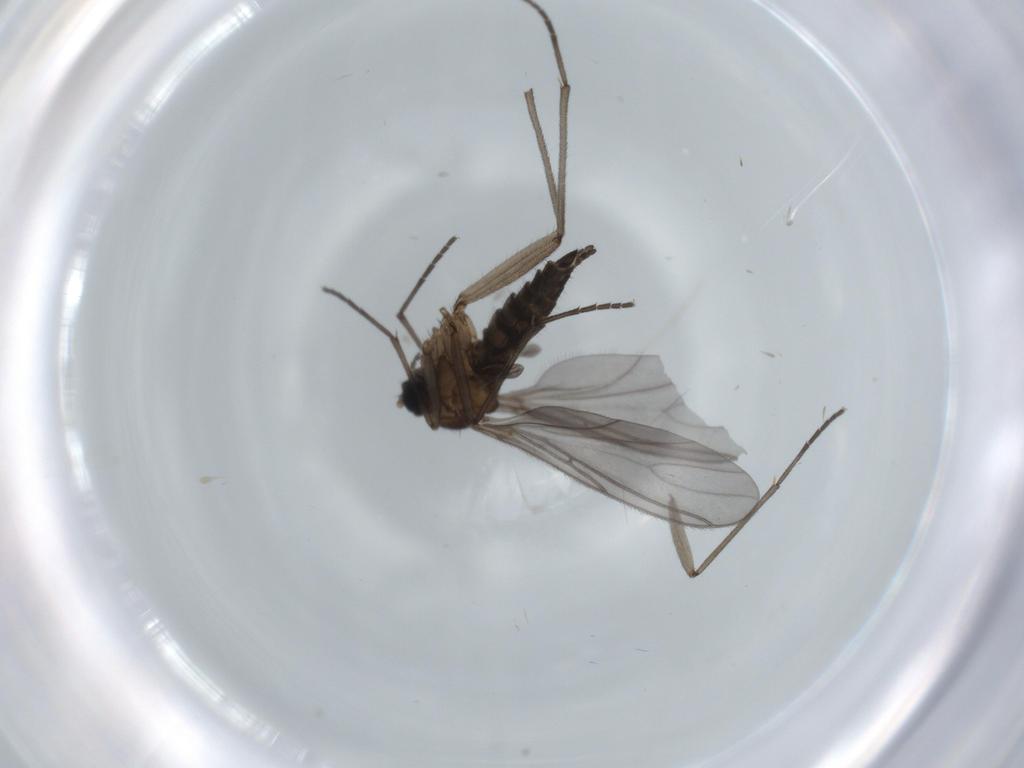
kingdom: Animalia
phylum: Arthropoda
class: Insecta
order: Diptera
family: Sciaridae
